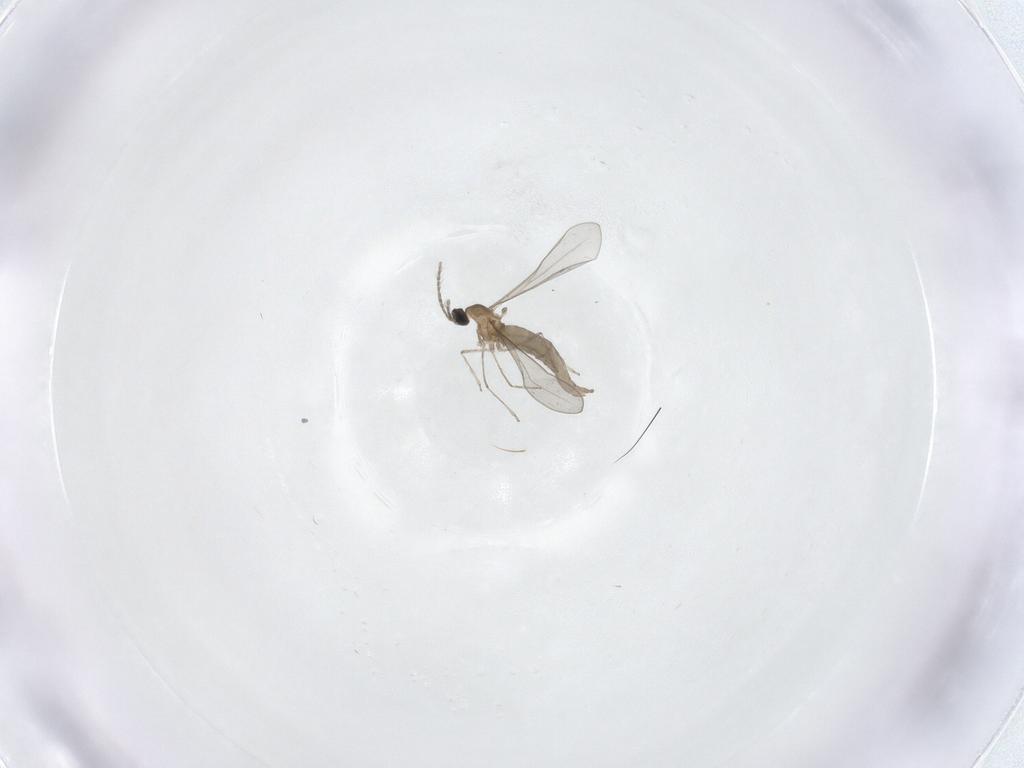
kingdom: Animalia
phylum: Arthropoda
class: Insecta
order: Diptera
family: Cecidomyiidae
